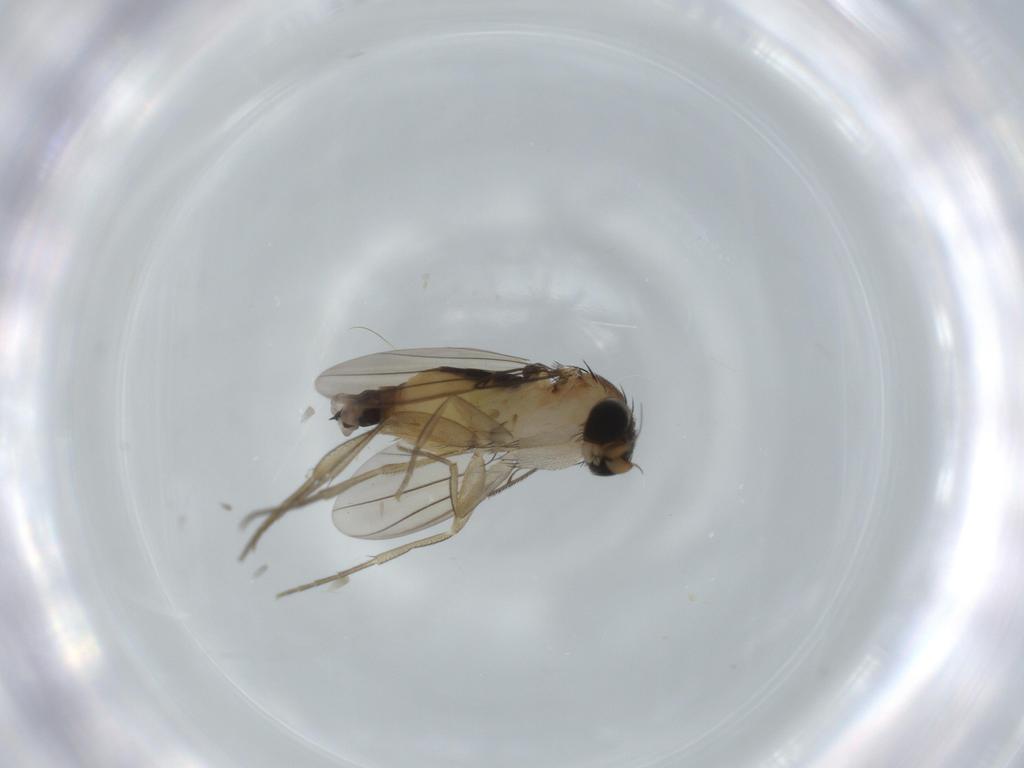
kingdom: Animalia
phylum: Arthropoda
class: Insecta
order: Diptera
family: Phoridae
